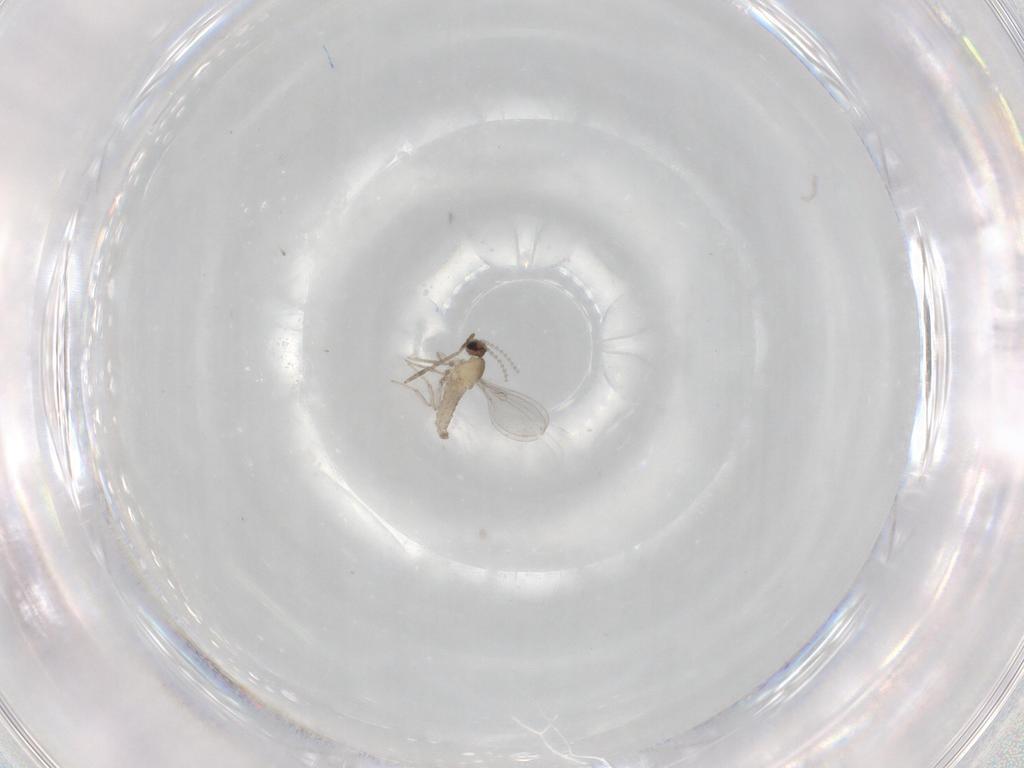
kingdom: Animalia
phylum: Arthropoda
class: Insecta
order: Diptera
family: Cecidomyiidae
